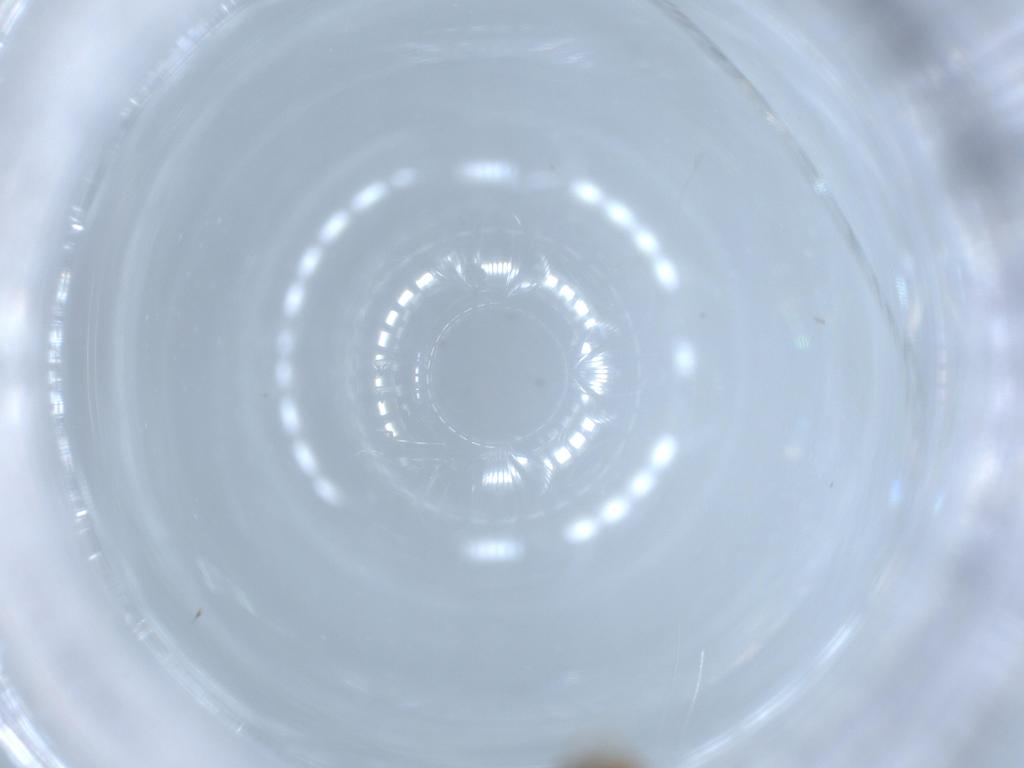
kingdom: Animalia
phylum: Arthropoda
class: Insecta
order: Hymenoptera
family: Scelionidae
